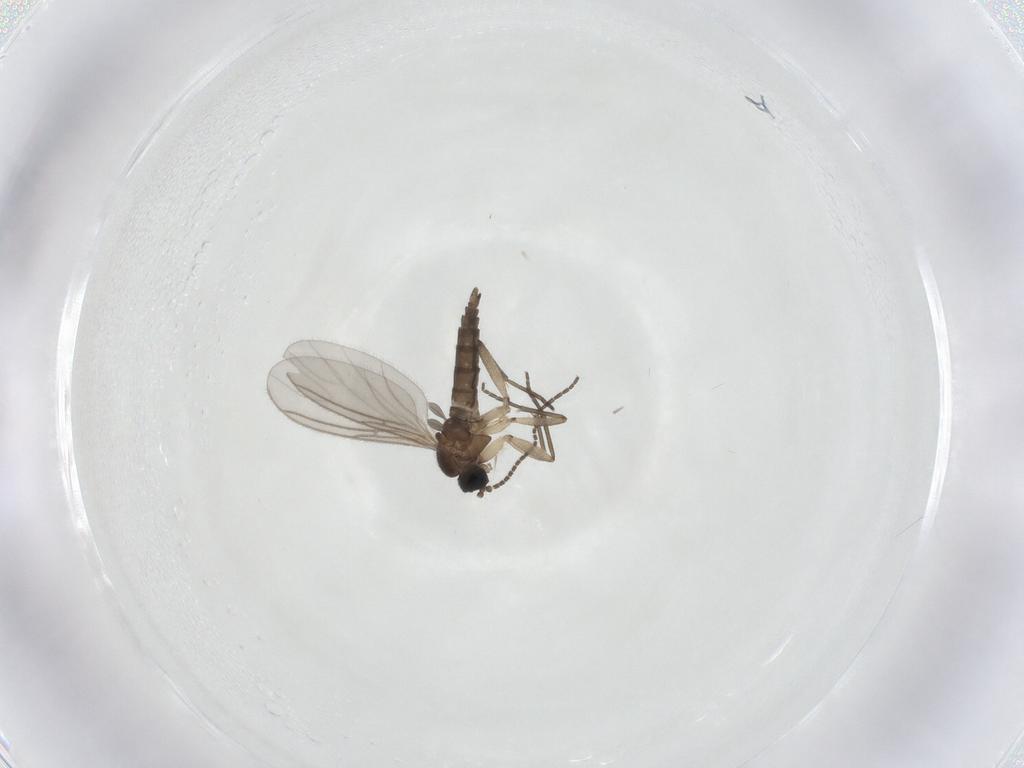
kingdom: Animalia
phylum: Arthropoda
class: Insecta
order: Diptera
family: Sciaridae
